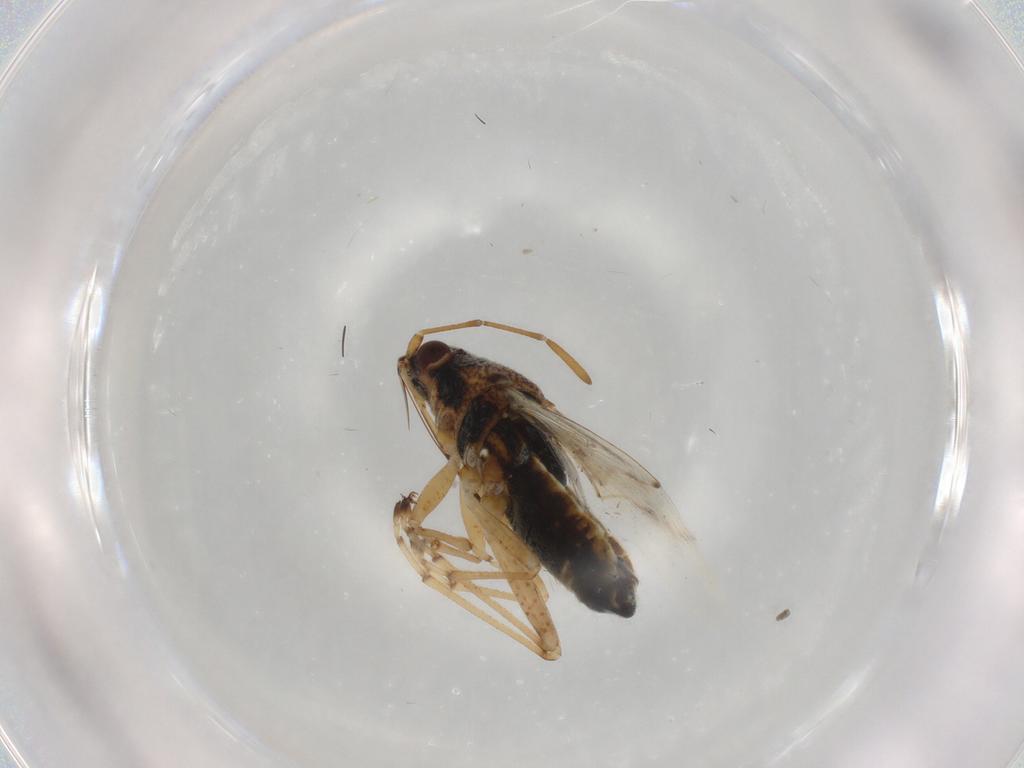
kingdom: Animalia
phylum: Arthropoda
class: Insecta
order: Hemiptera
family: Lygaeidae
